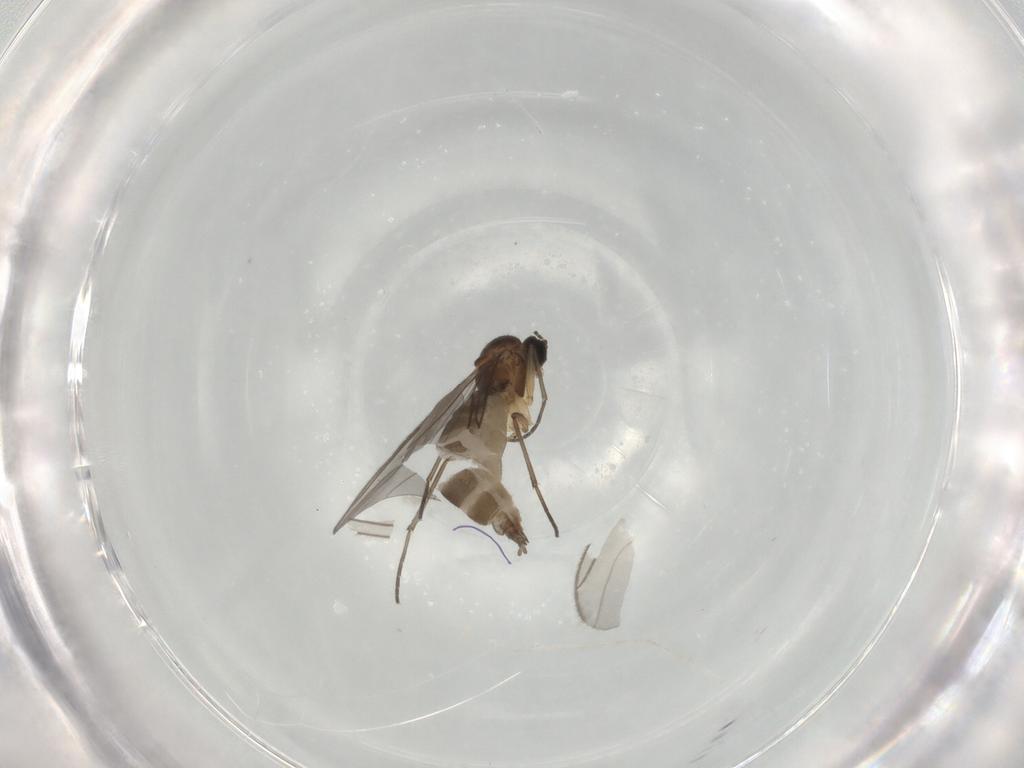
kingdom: Animalia
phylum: Arthropoda
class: Insecta
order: Diptera
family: Sciaridae
